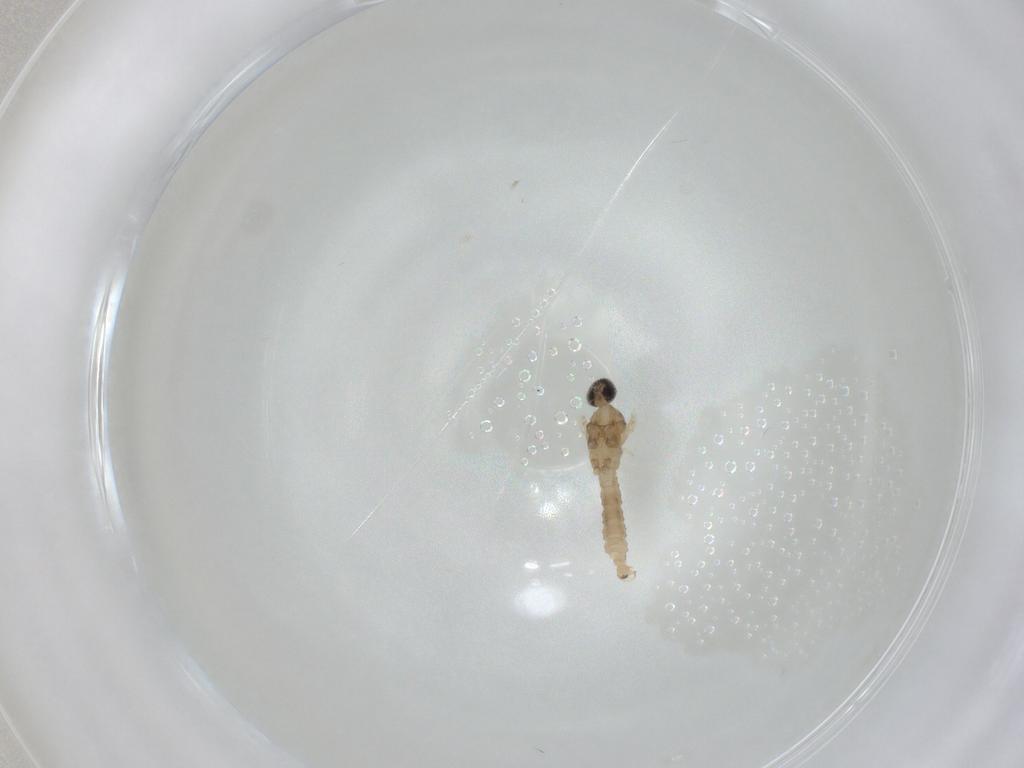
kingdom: Animalia
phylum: Arthropoda
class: Insecta
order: Diptera
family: Cecidomyiidae
